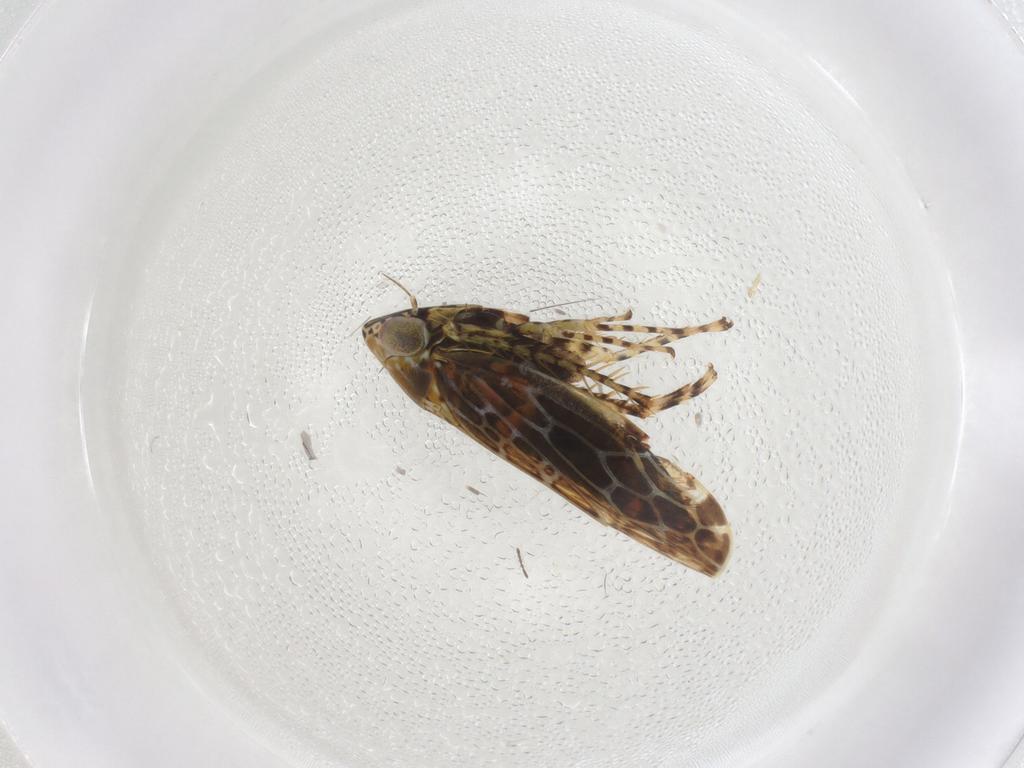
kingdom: Animalia
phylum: Arthropoda
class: Insecta
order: Hemiptera
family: Cicadellidae
